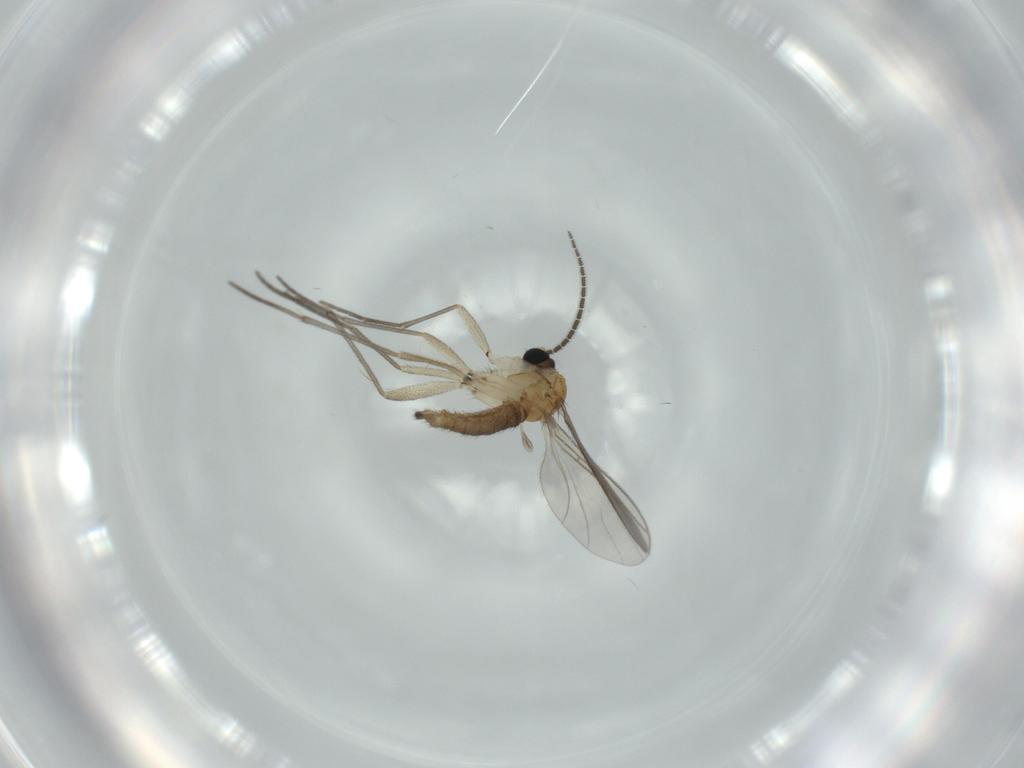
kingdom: Animalia
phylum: Arthropoda
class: Insecta
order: Diptera
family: Sciaridae
